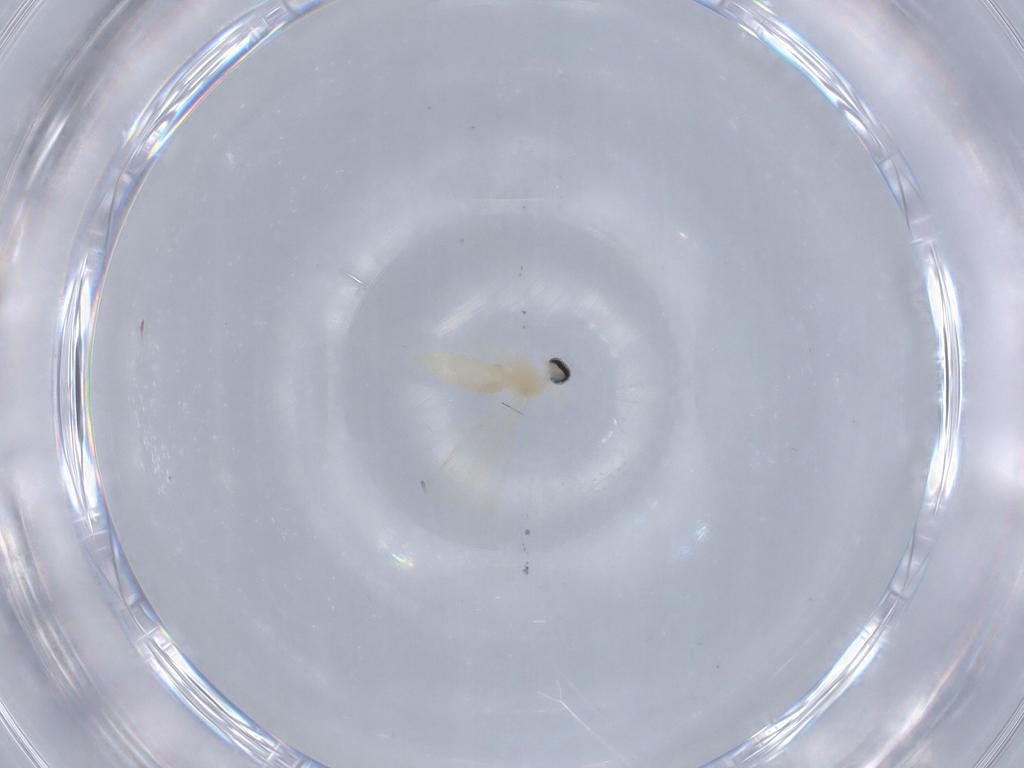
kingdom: Animalia
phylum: Arthropoda
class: Insecta
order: Diptera
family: Cecidomyiidae
